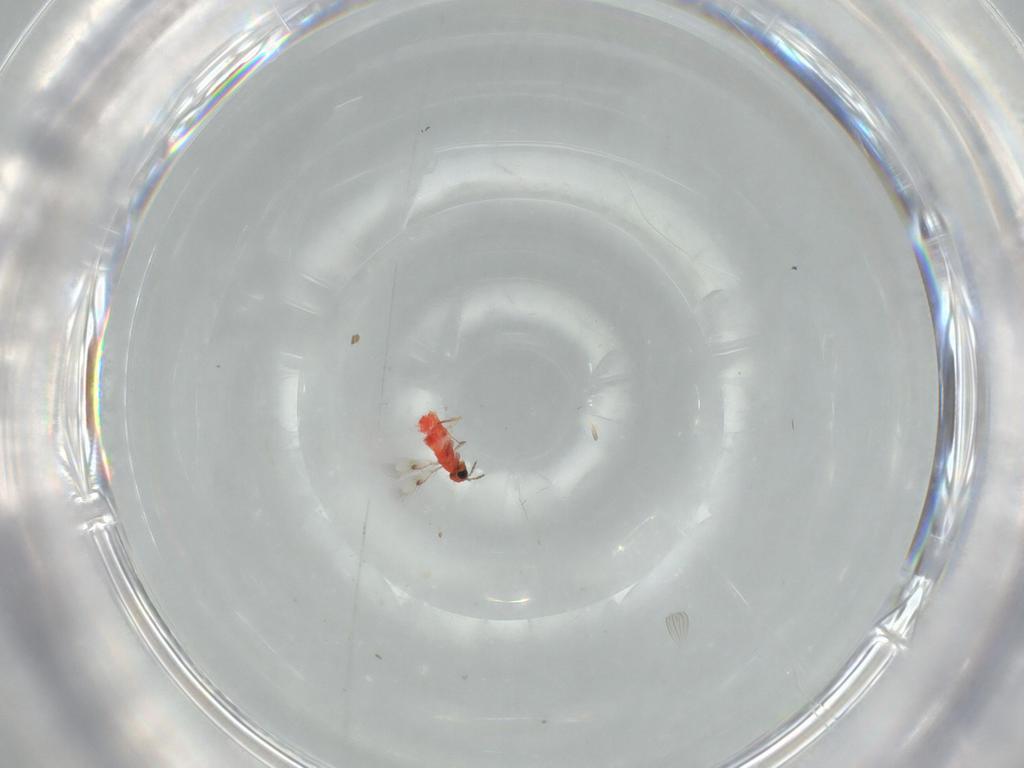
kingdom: Animalia
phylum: Arthropoda
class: Insecta
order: Hymenoptera
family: Trichogrammatidae
